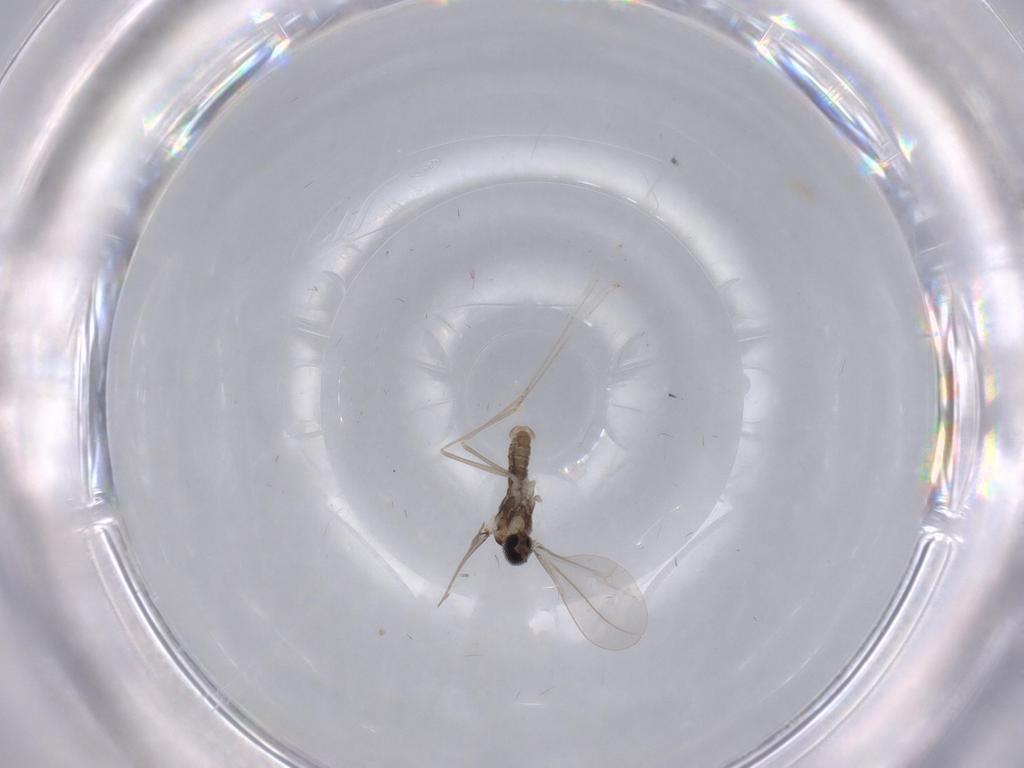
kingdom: Animalia
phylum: Arthropoda
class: Insecta
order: Diptera
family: Cecidomyiidae
